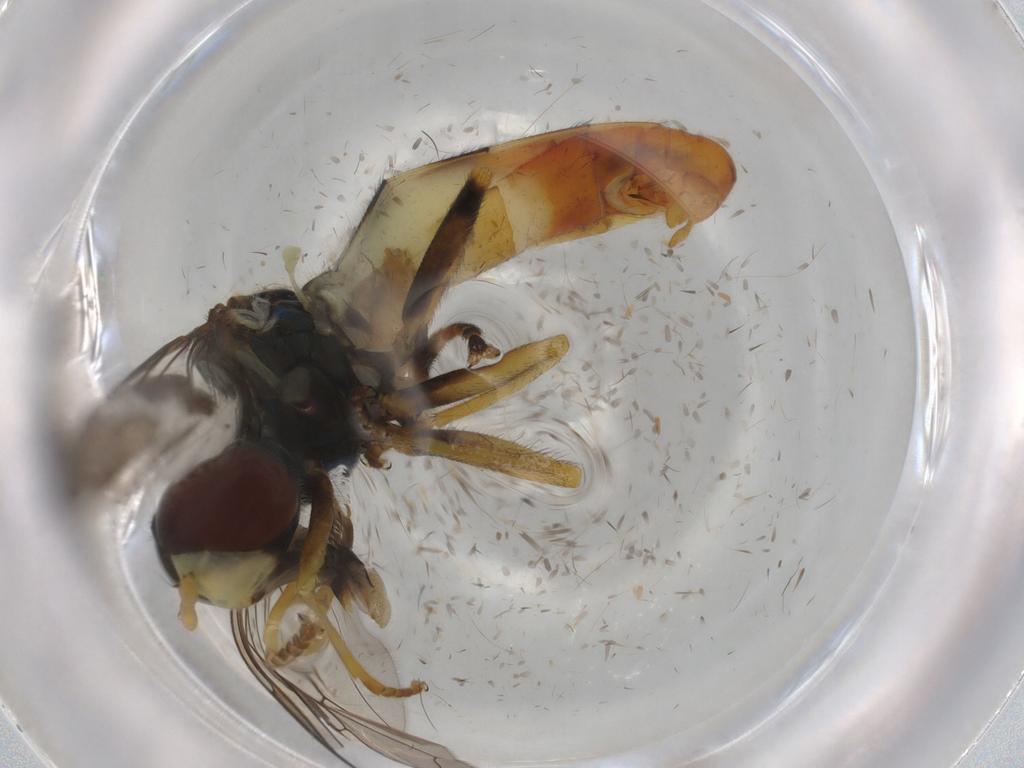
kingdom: Animalia
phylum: Arthropoda
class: Insecta
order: Diptera
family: Syrphidae
